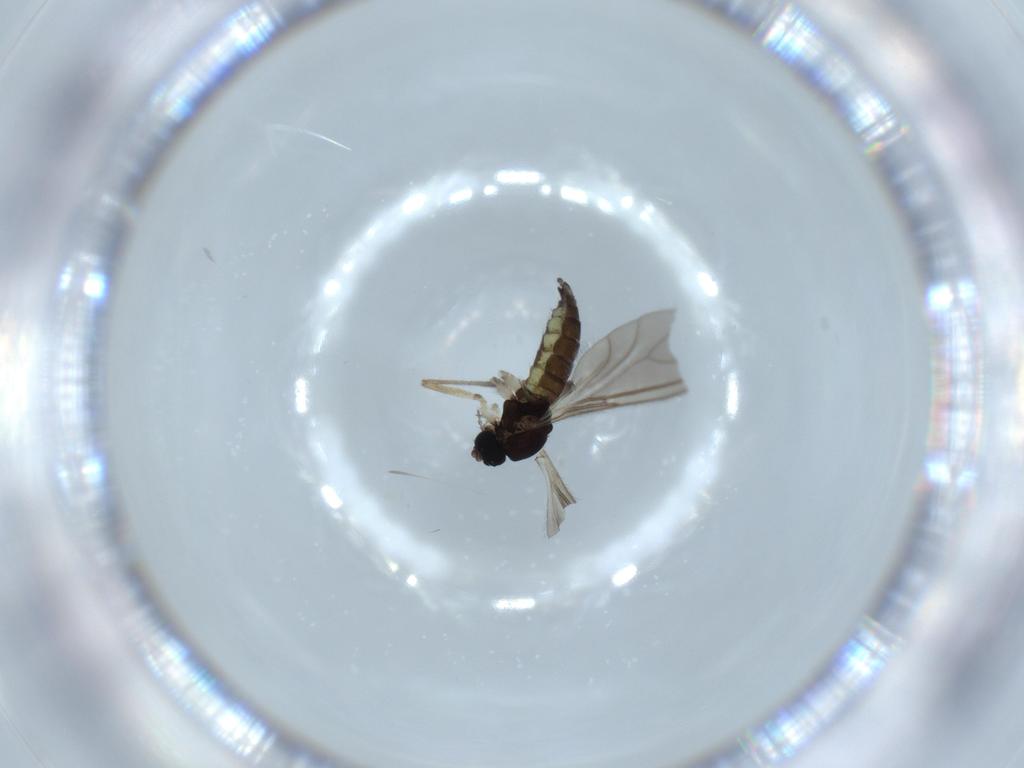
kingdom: Animalia
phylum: Arthropoda
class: Insecta
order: Diptera
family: Sciaridae
